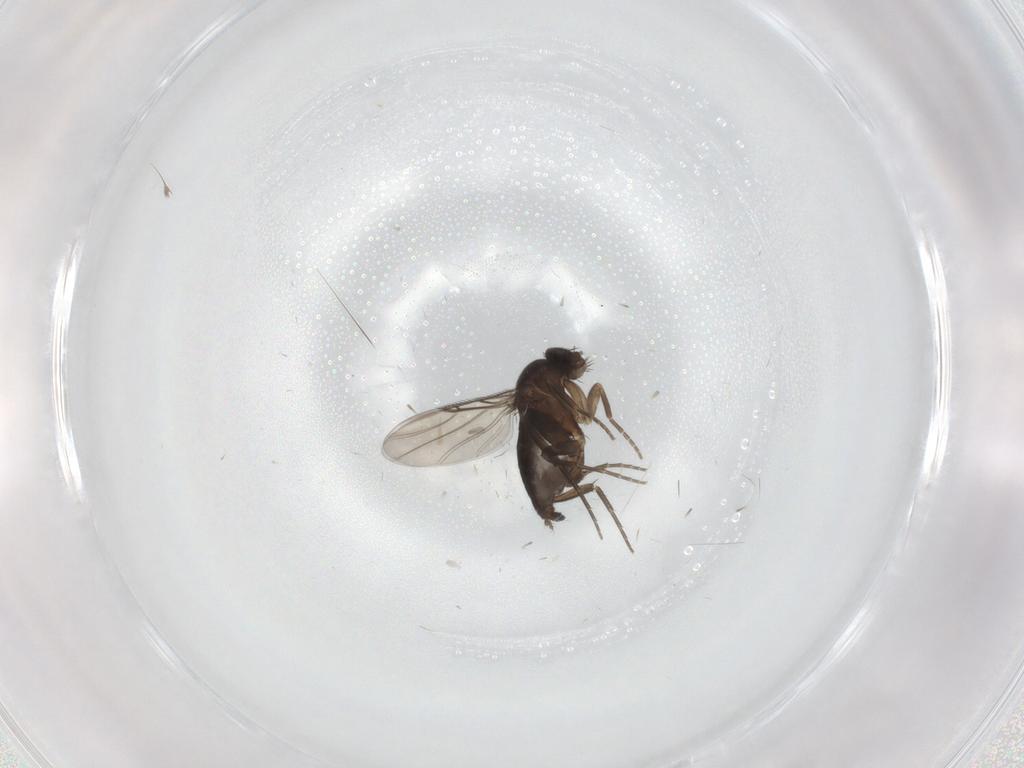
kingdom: Animalia
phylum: Arthropoda
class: Insecta
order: Diptera
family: Phoridae
